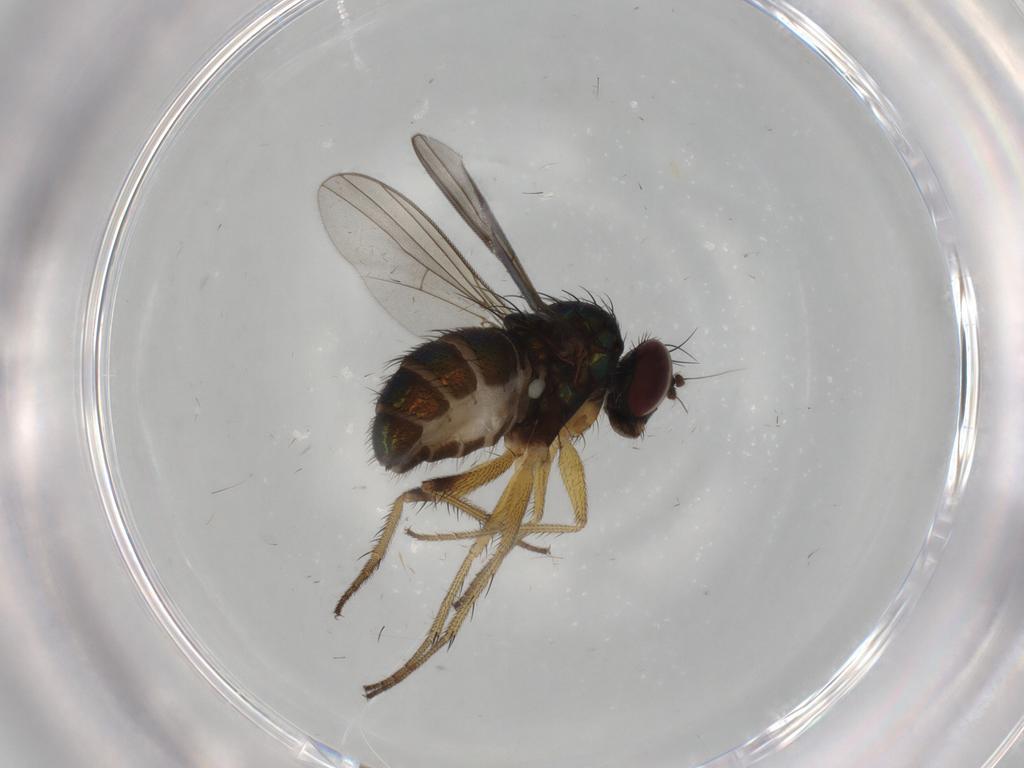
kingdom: Animalia
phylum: Arthropoda
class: Insecta
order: Diptera
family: Dolichopodidae
